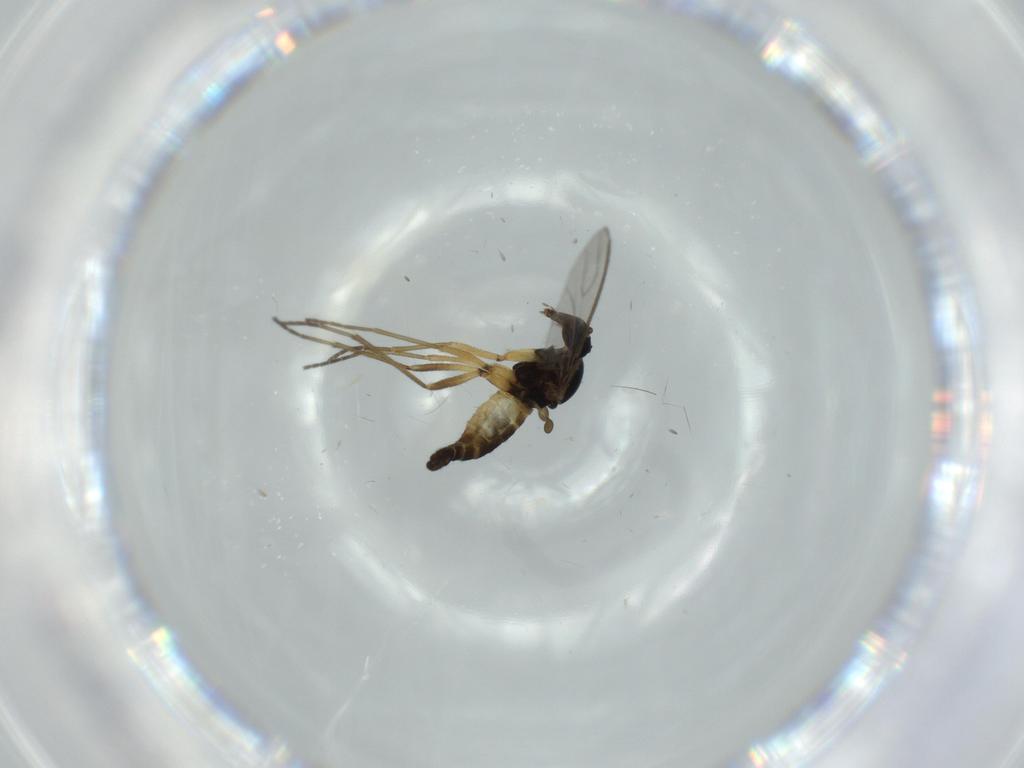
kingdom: Animalia
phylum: Arthropoda
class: Insecta
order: Diptera
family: Sciaridae
